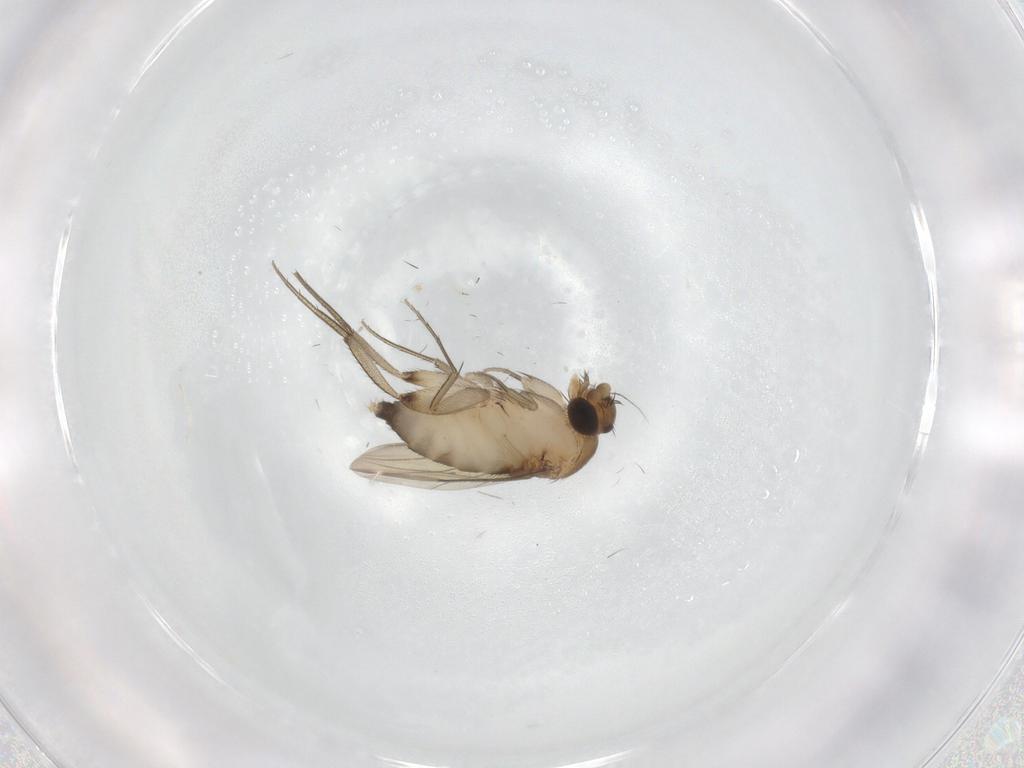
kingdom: Animalia
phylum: Arthropoda
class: Insecta
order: Diptera
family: Phoridae
